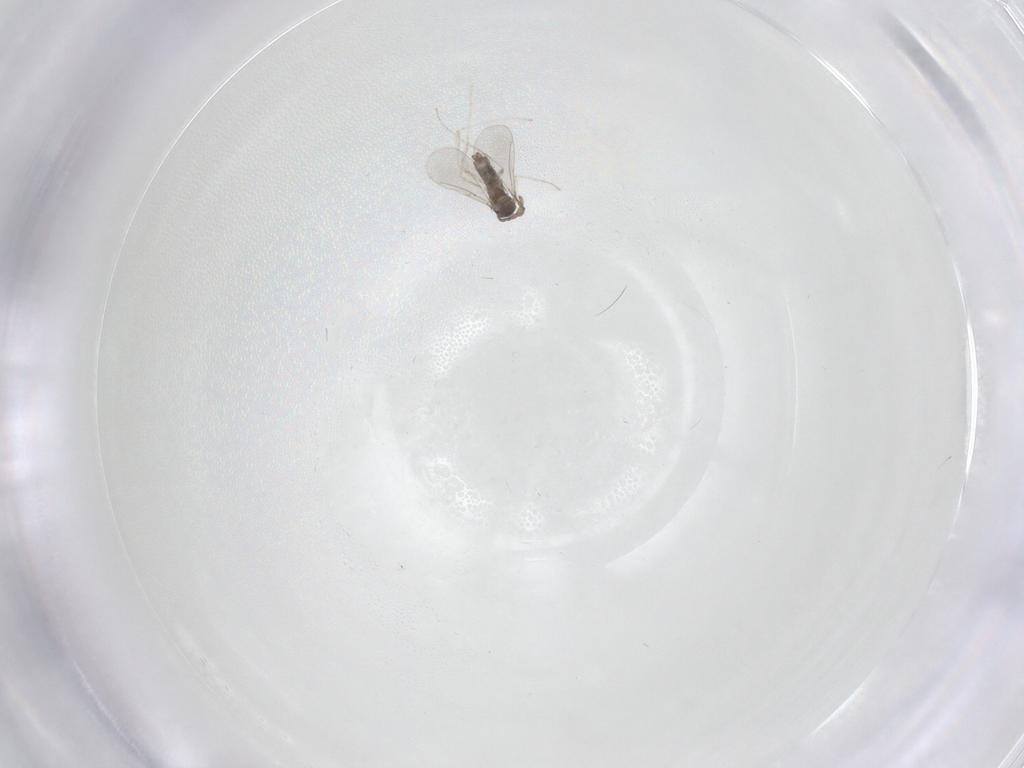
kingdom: Animalia
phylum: Arthropoda
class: Insecta
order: Diptera
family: Cecidomyiidae
